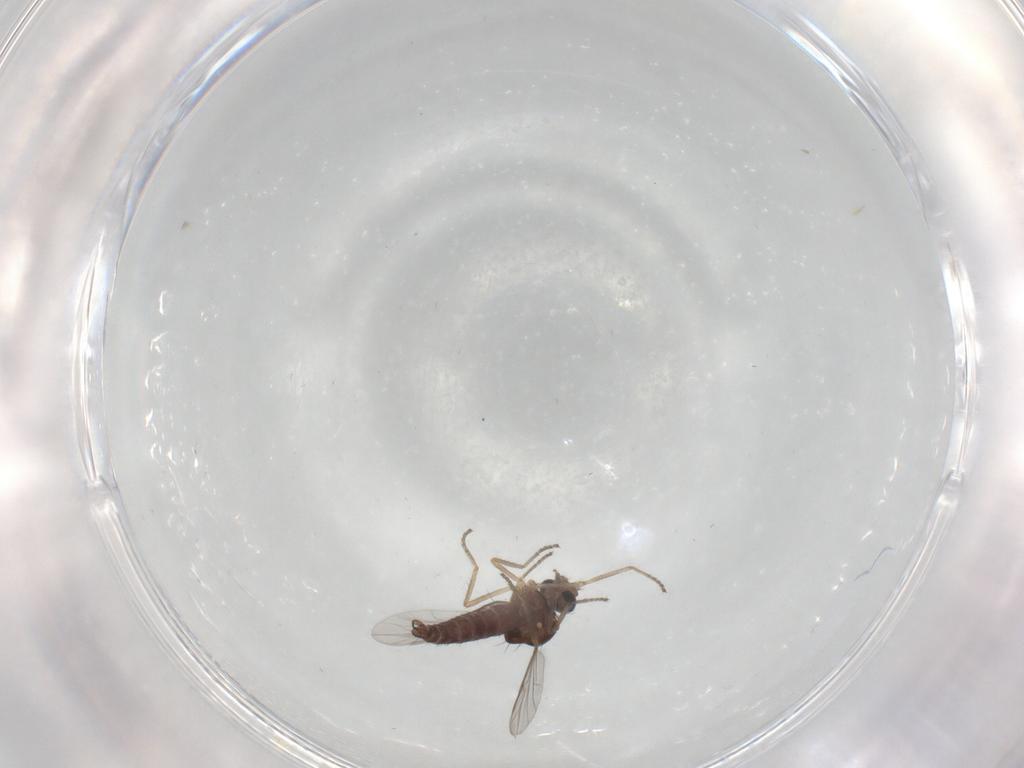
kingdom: Animalia
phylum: Arthropoda
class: Insecta
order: Diptera
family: Ceratopogonidae
